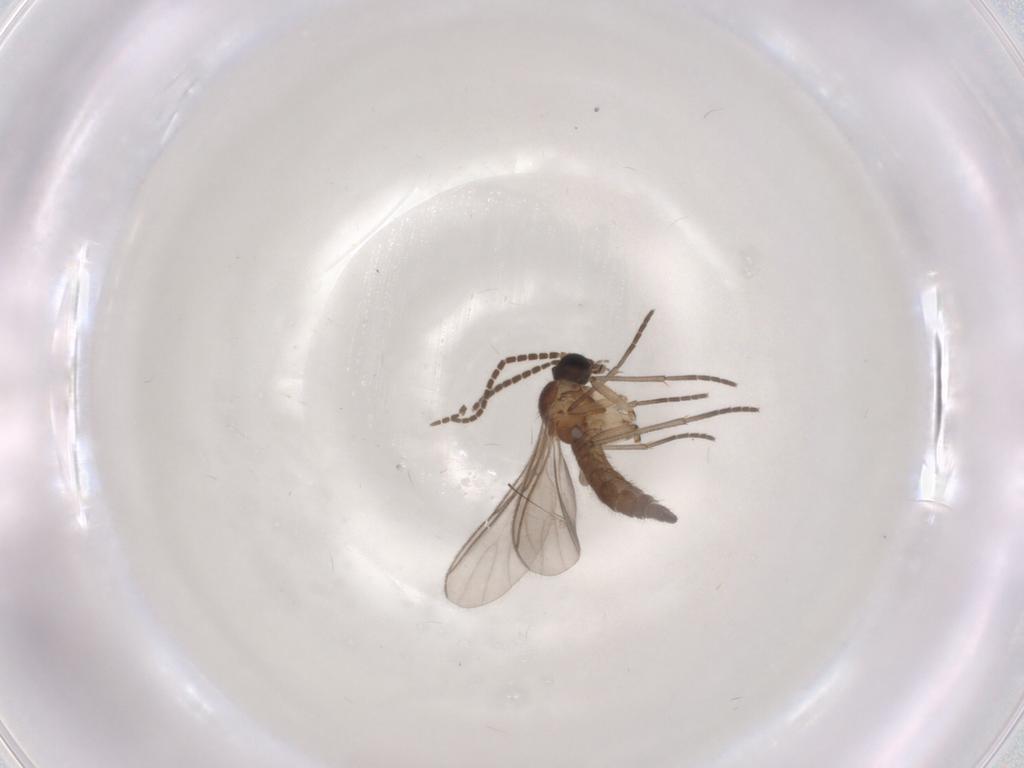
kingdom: Animalia
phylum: Arthropoda
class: Insecta
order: Diptera
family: Sciaridae
